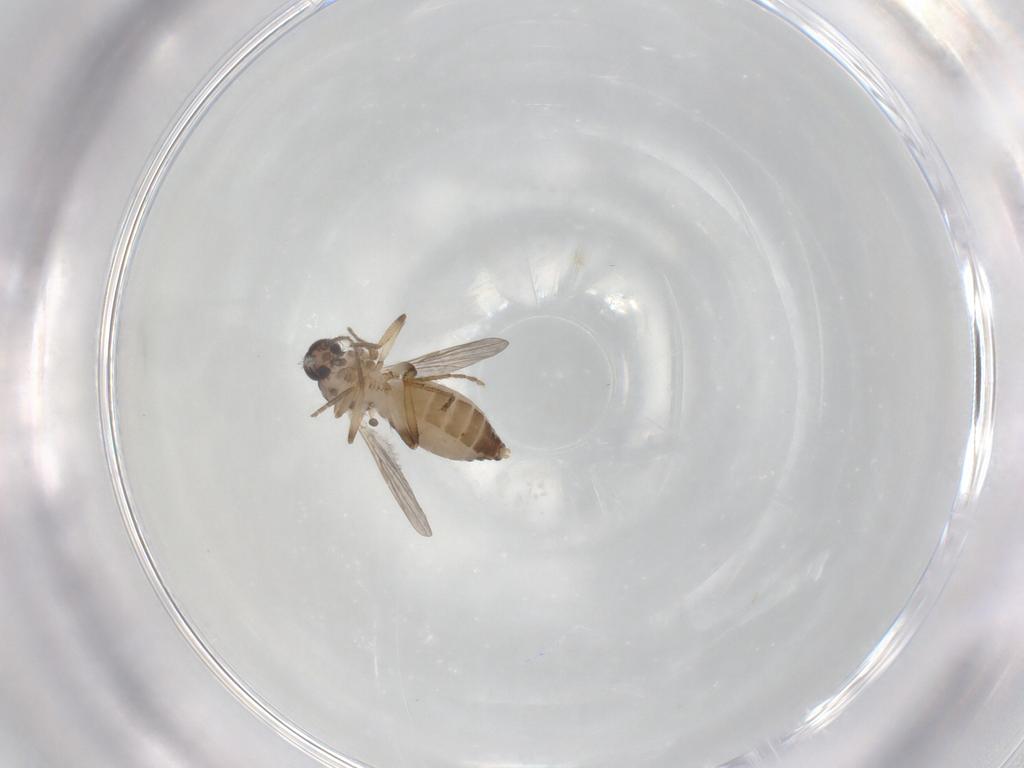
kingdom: Animalia
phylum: Arthropoda
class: Insecta
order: Diptera
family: Ceratopogonidae
